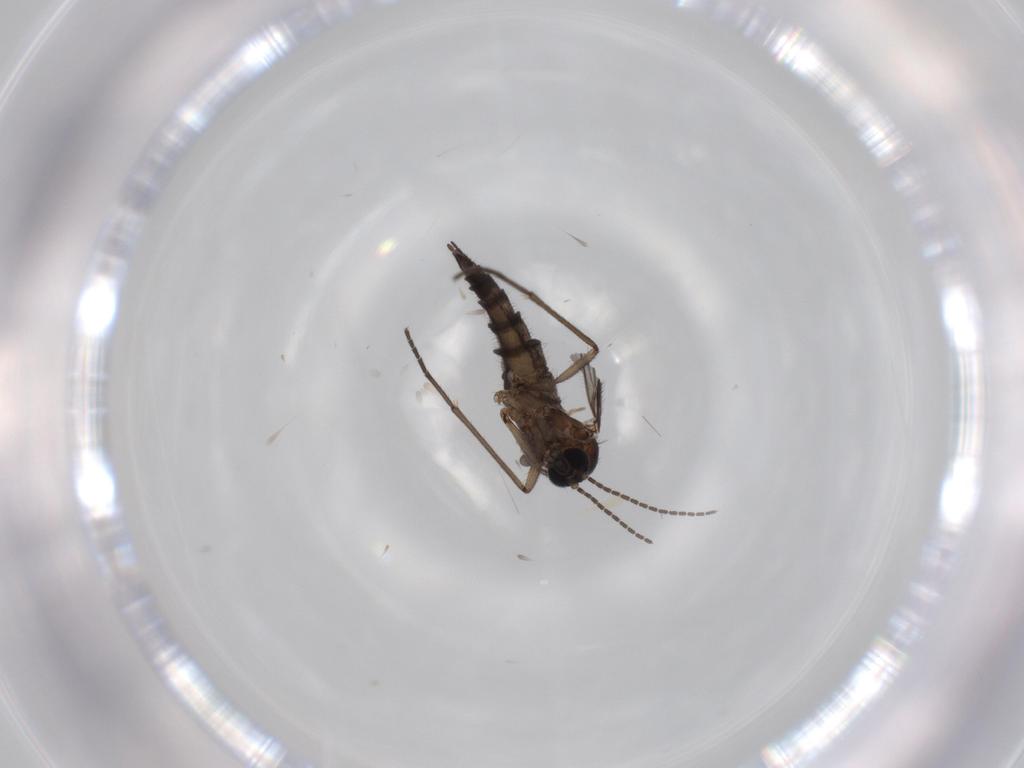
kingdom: Animalia
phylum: Arthropoda
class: Insecta
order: Diptera
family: Sciaridae
